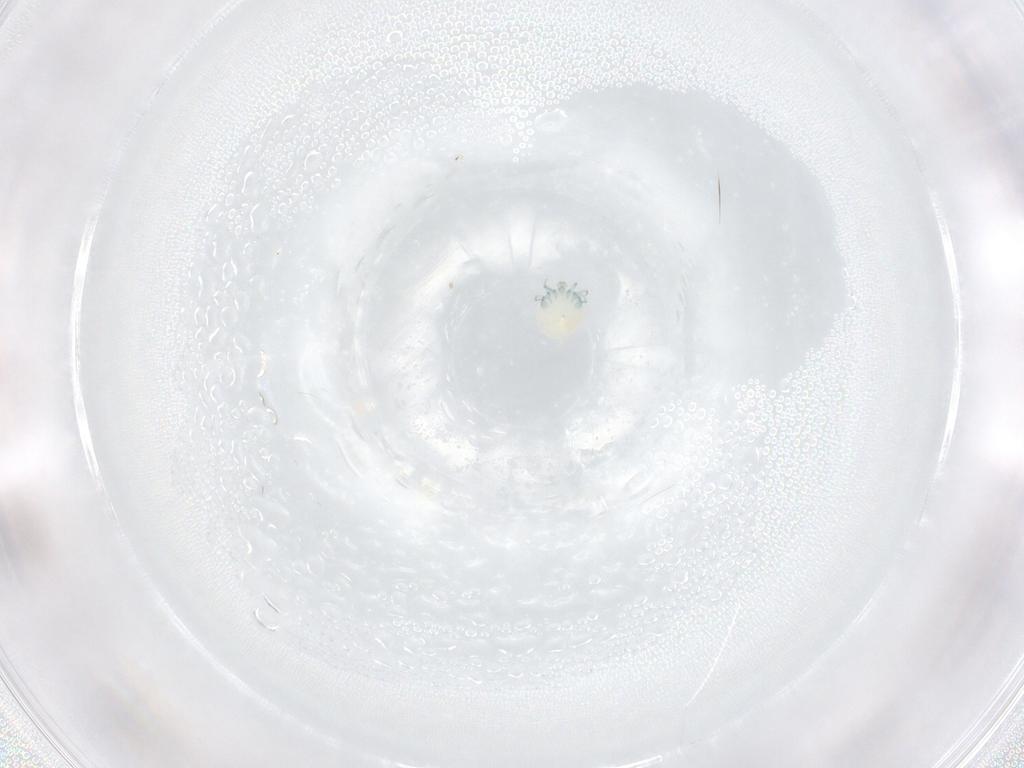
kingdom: Animalia
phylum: Arthropoda
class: Arachnida
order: Trombidiformes
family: Arrenuridae
